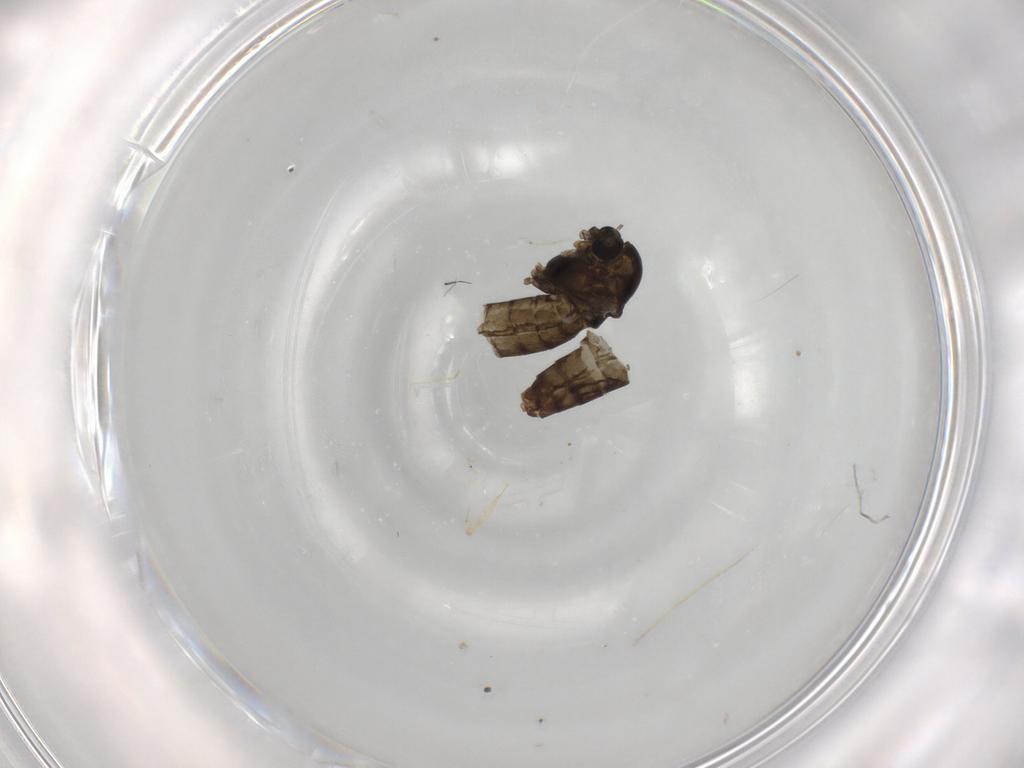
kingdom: Animalia
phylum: Arthropoda
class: Insecta
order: Diptera
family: Chironomidae
